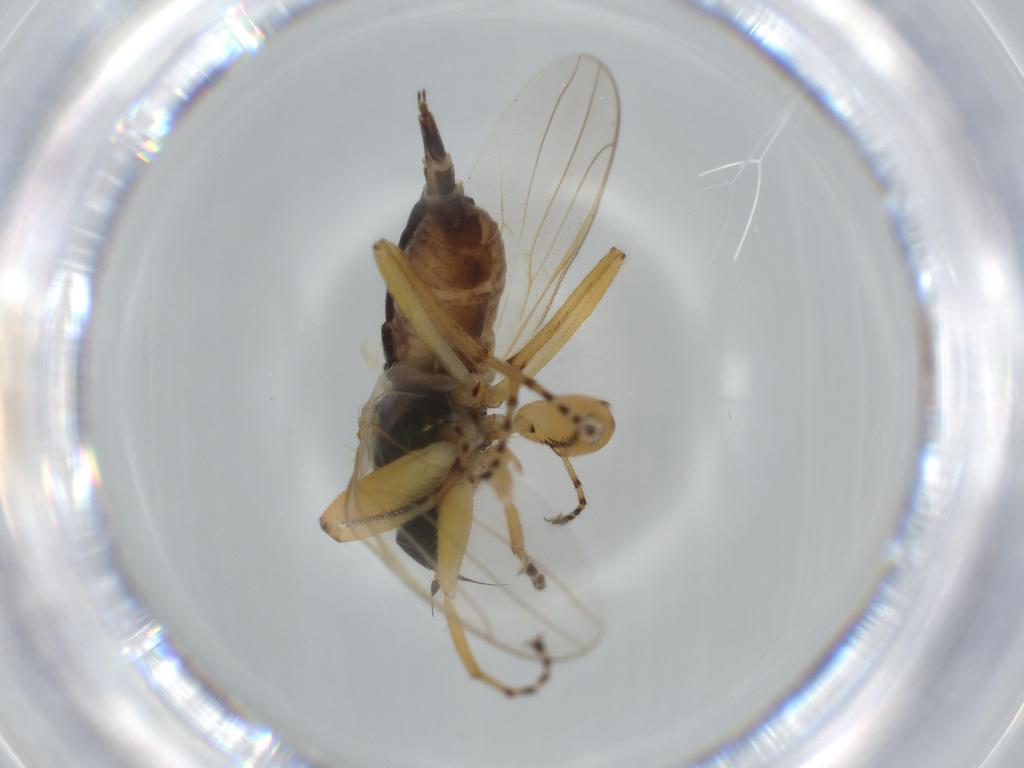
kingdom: Animalia
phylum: Arthropoda
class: Insecta
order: Diptera
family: Hybotidae
